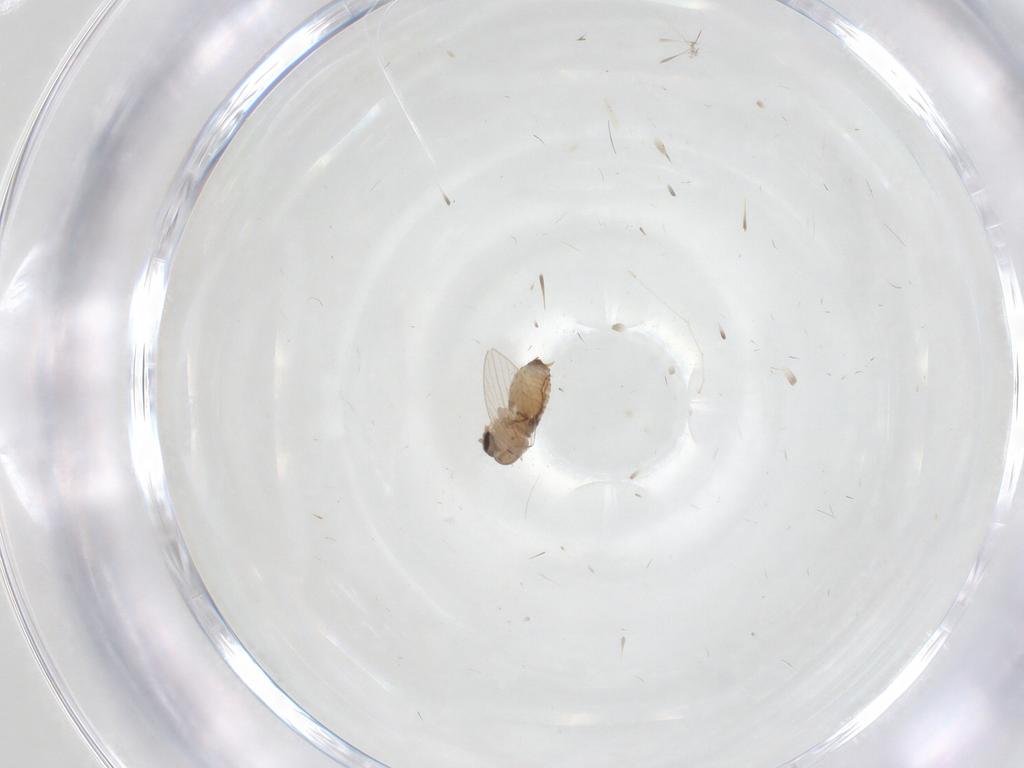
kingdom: Animalia
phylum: Arthropoda
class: Insecta
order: Diptera
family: Psychodidae
